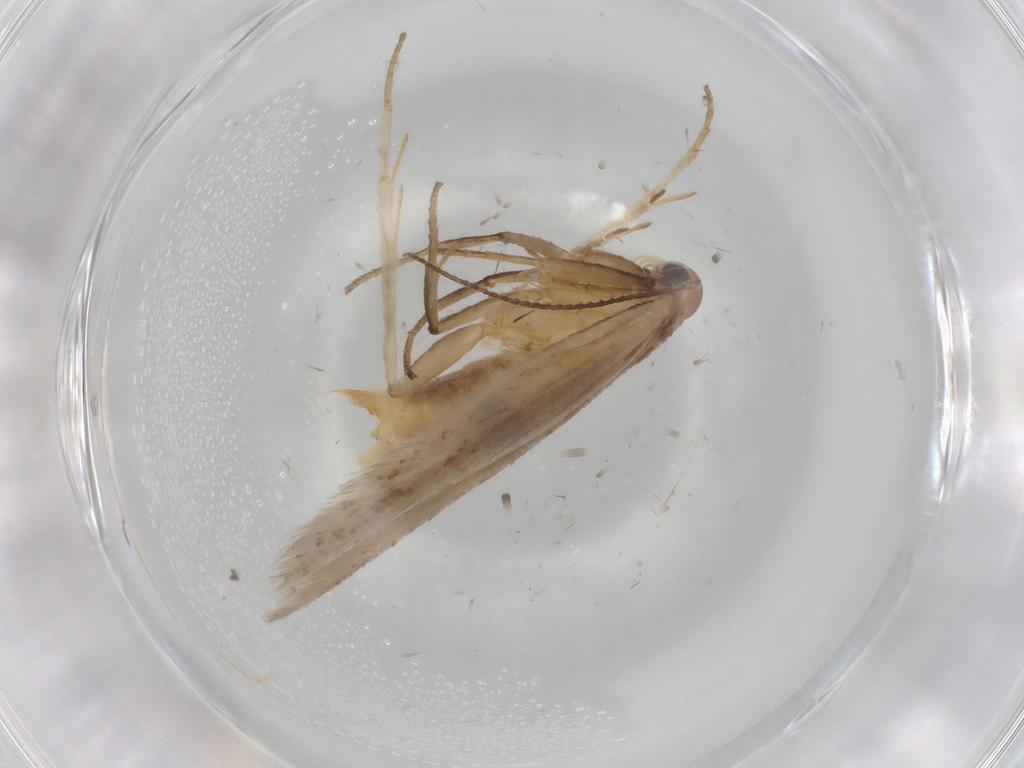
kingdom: Animalia
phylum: Arthropoda
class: Insecta
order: Lepidoptera
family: Gelechiidae
